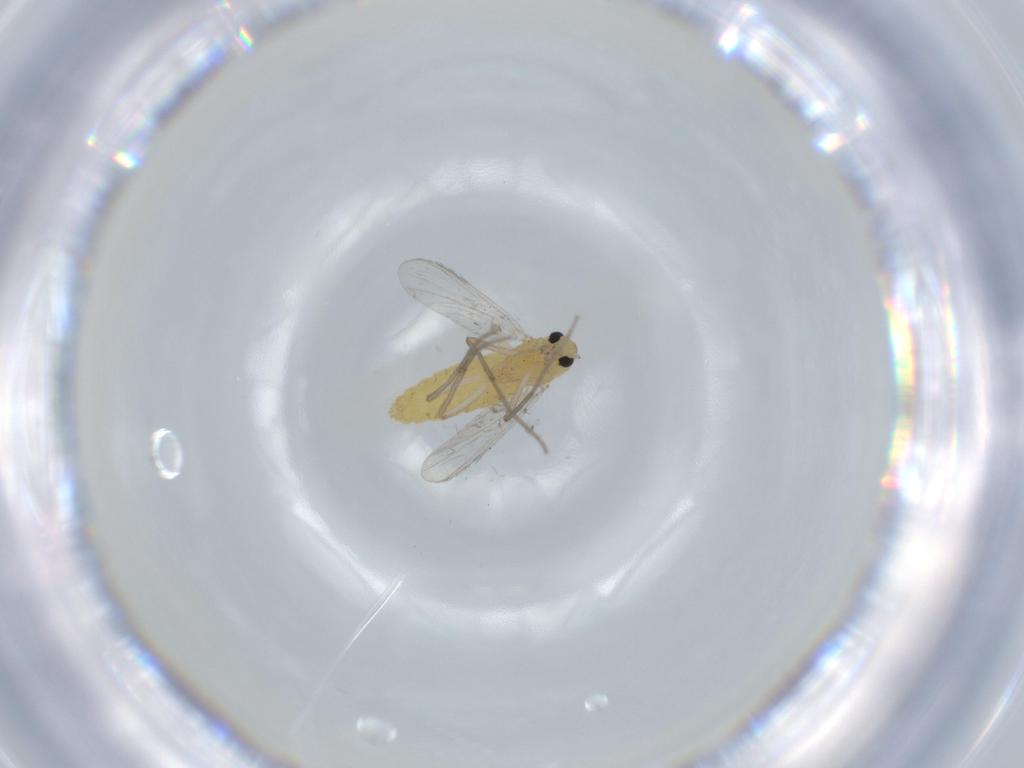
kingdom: Animalia
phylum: Arthropoda
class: Insecta
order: Diptera
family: Chironomidae
